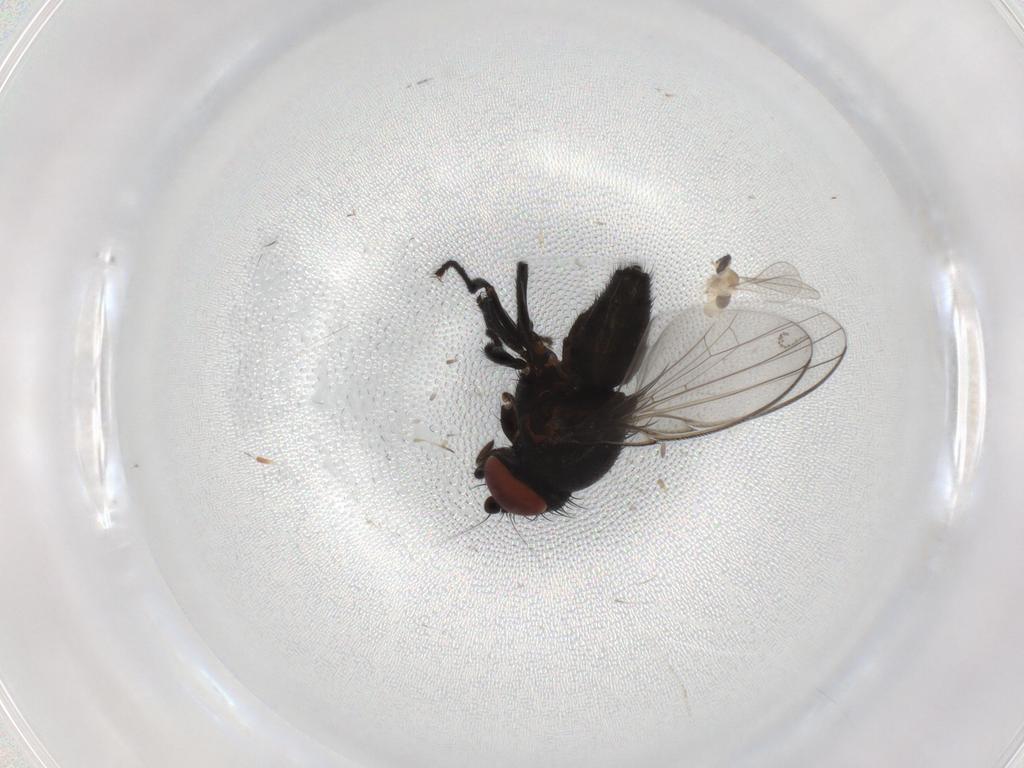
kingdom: Animalia
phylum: Arthropoda
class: Insecta
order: Diptera
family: Milichiidae
